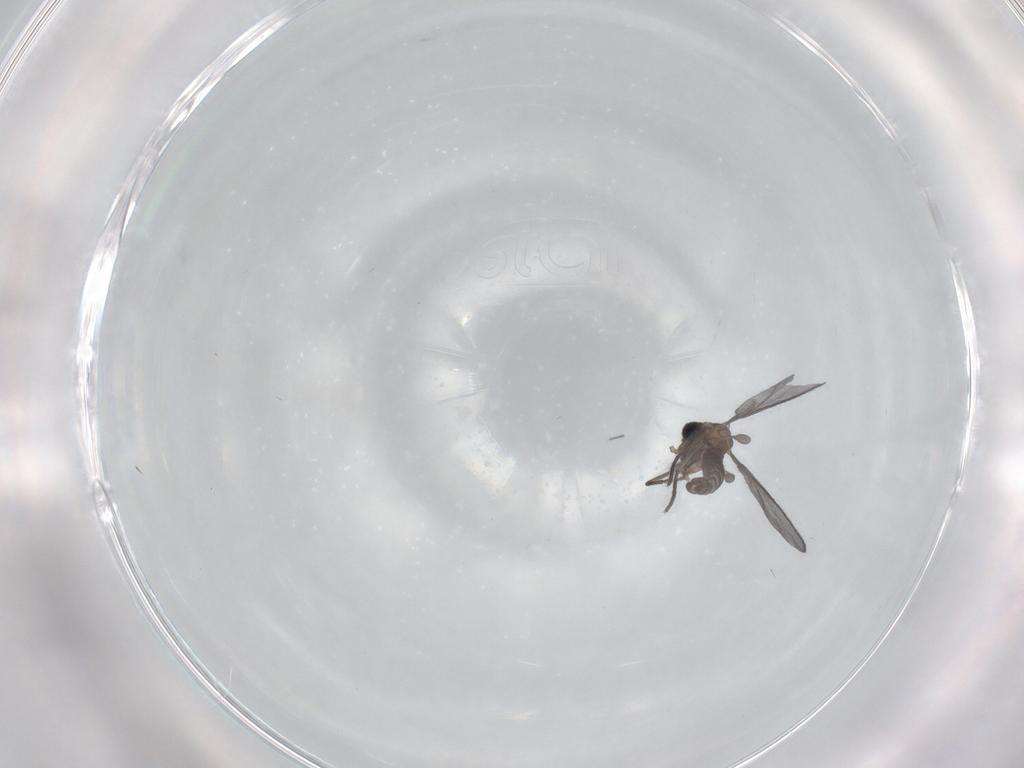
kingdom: Animalia
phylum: Arthropoda
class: Insecta
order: Diptera
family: Sciaridae
